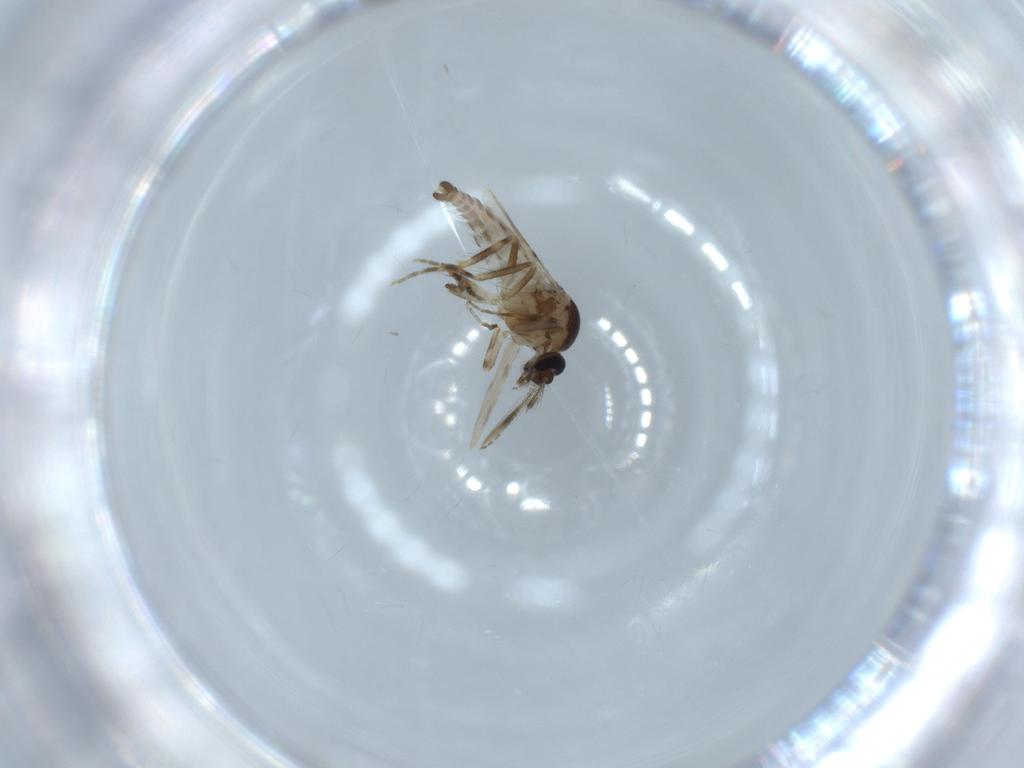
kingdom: Animalia
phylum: Arthropoda
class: Insecta
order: Diptera
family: Ceratopogonidae
